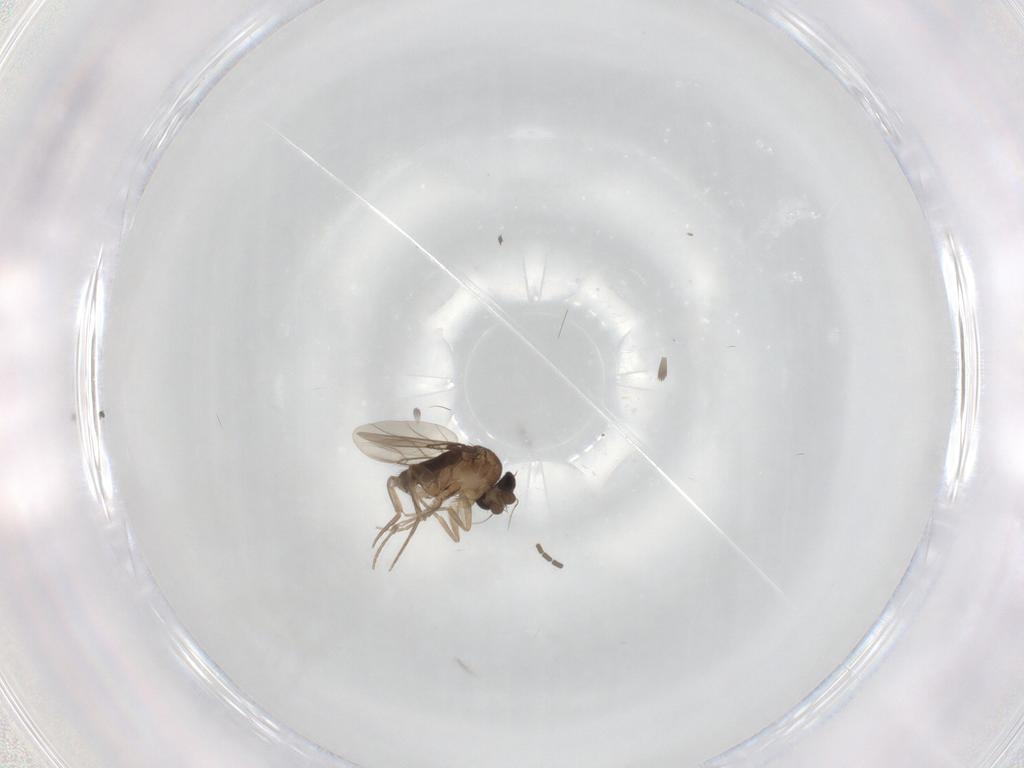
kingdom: Animalia
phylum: Arthropoda
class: Insecta
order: Diptera
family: Phoridae
